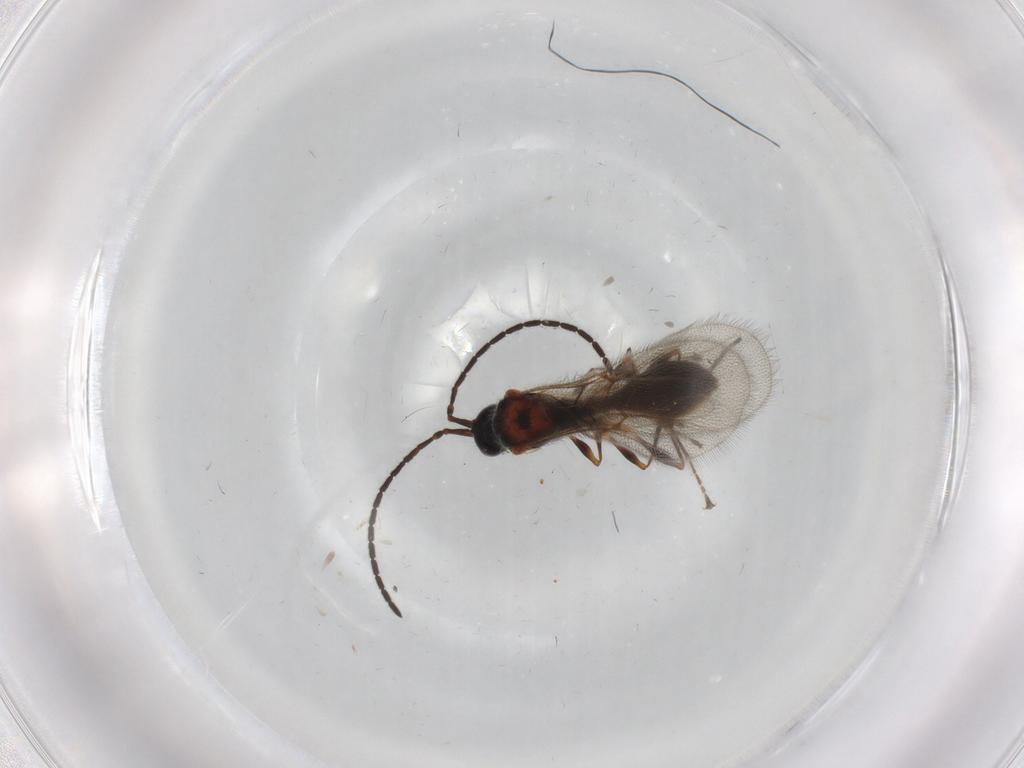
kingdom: Animalia
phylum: Arthropoda
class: Insecta
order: Hymenoptera
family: Diapriidae
